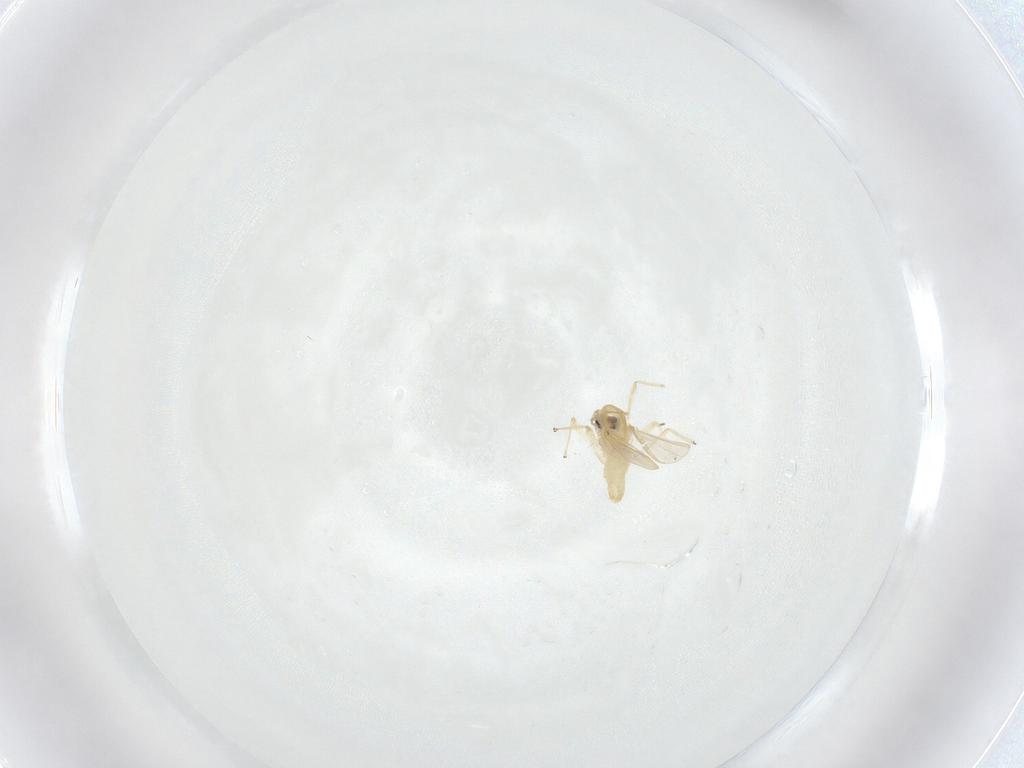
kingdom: Animalia
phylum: Arthropoda
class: Insecta
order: Diptera
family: Chironomidae
